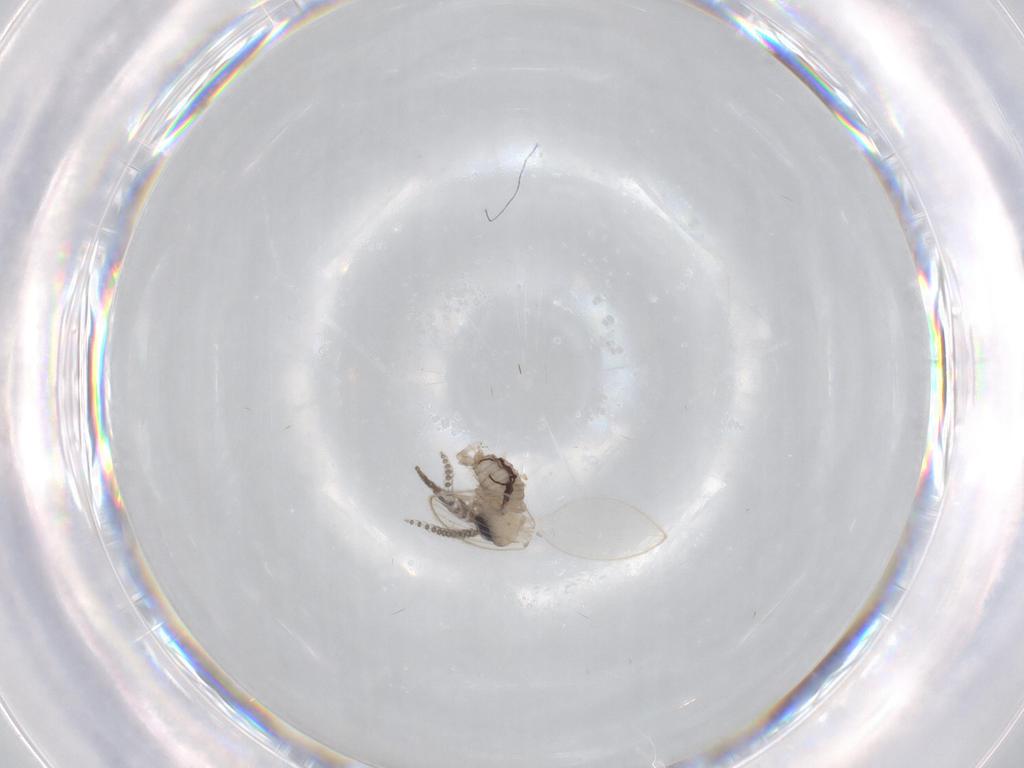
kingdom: Animalia
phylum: Arthropoda
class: Insecta
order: Diptera
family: Psychodidae
